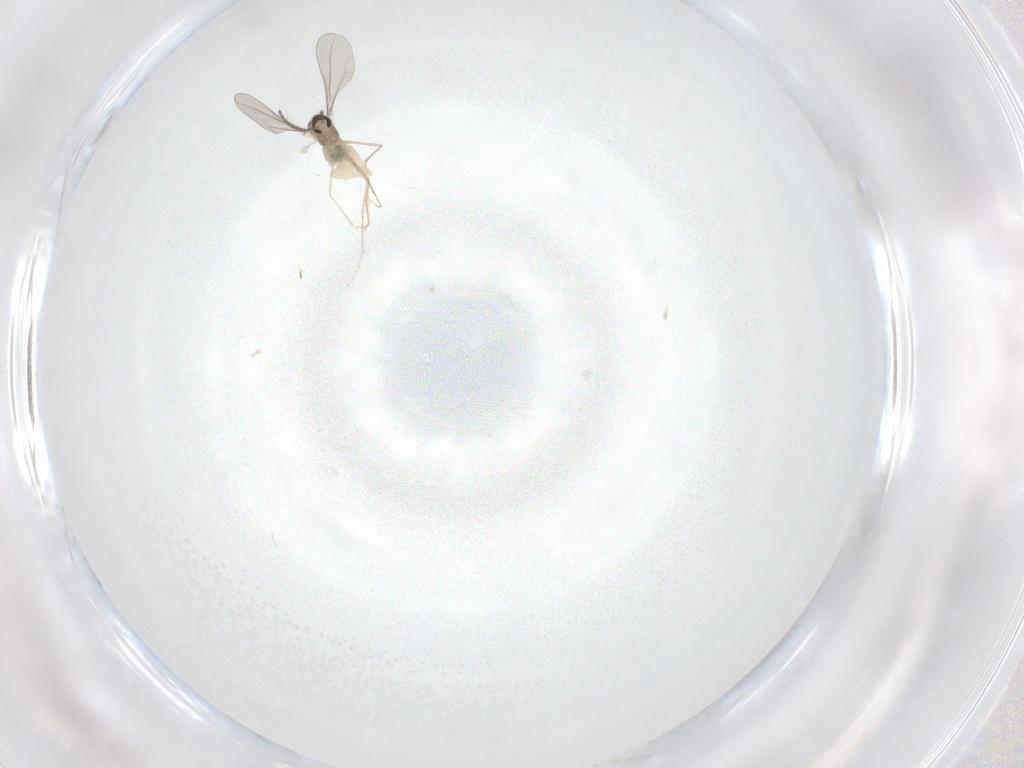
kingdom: Animalia
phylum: Arthropoda
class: Insecta
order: Diptera
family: Cecidomyiidae
